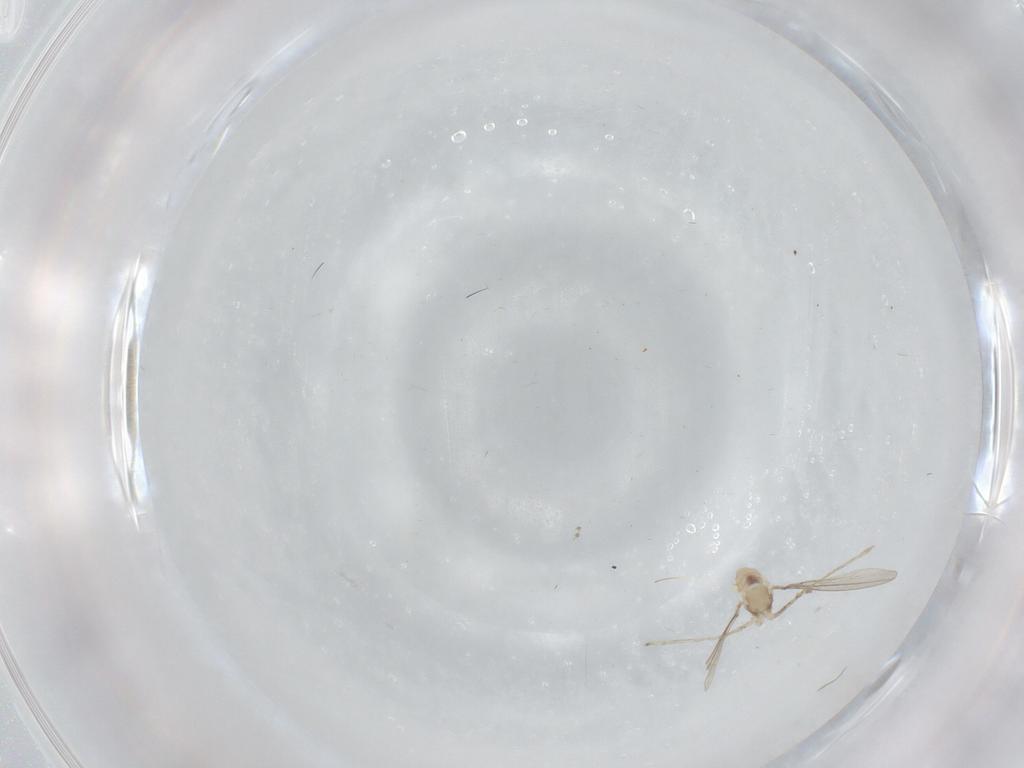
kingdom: Animalia
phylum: Arthropoda
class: Insecta
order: Diptera
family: Cecidomyiidae
